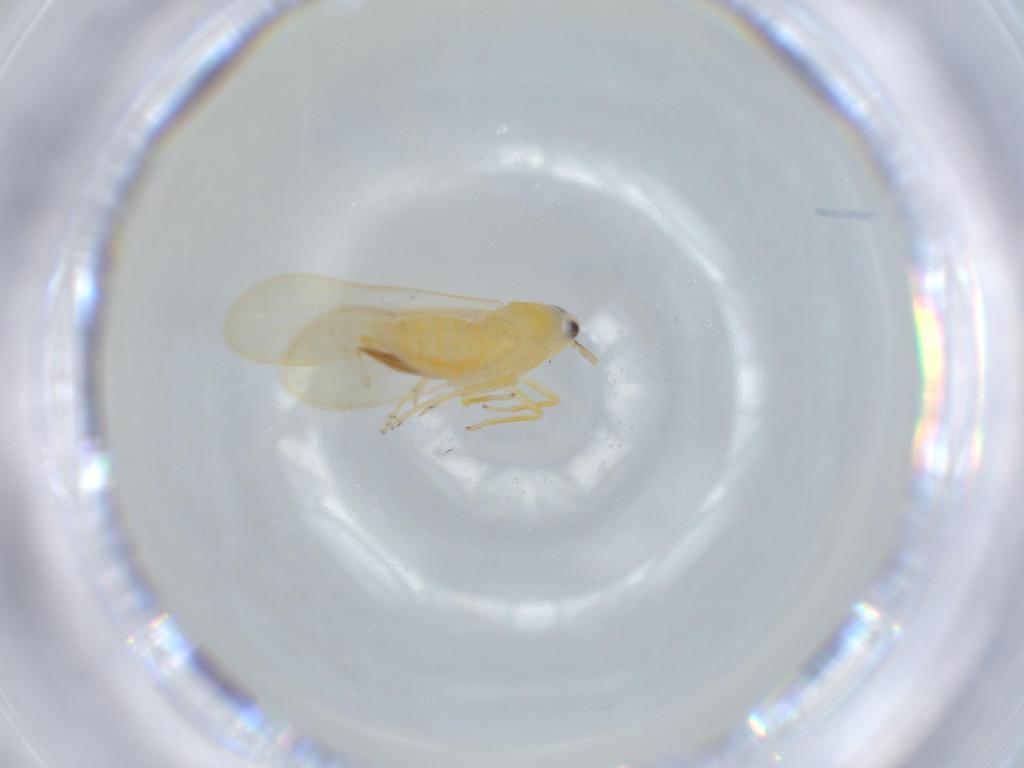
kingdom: Animalia
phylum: Arthropoda
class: Insecta
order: Hemiptera
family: Delphacidae
